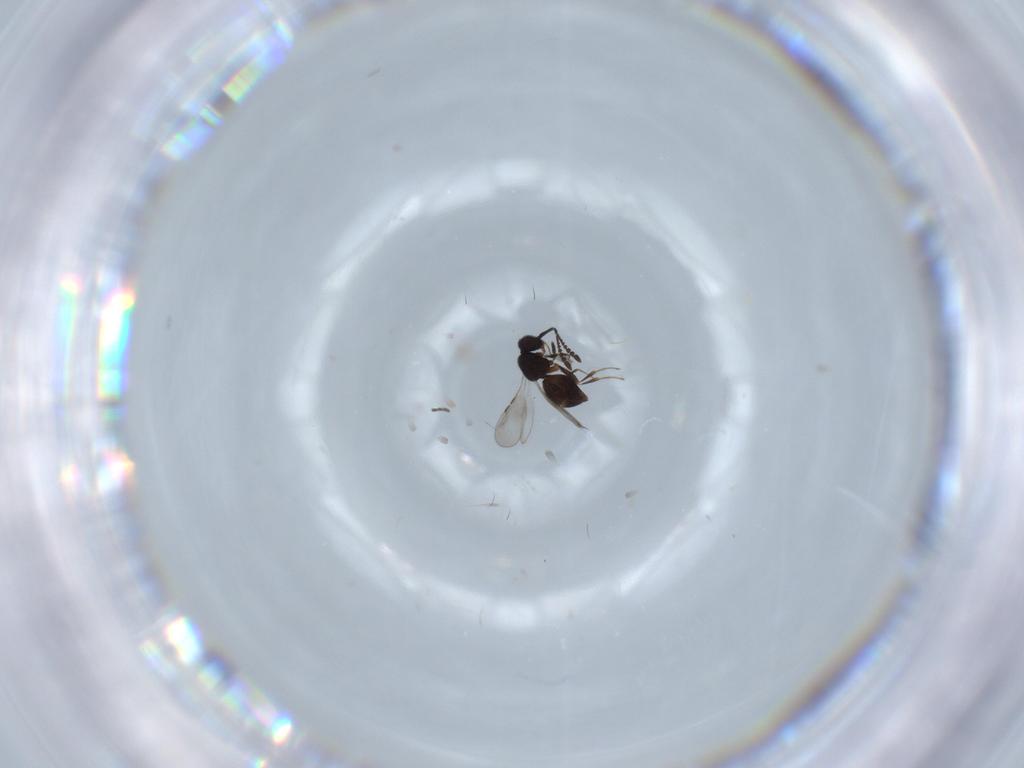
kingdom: Animalia
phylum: Arthropoda
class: Insecta
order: Hymenoptera
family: Ceraphronidae
